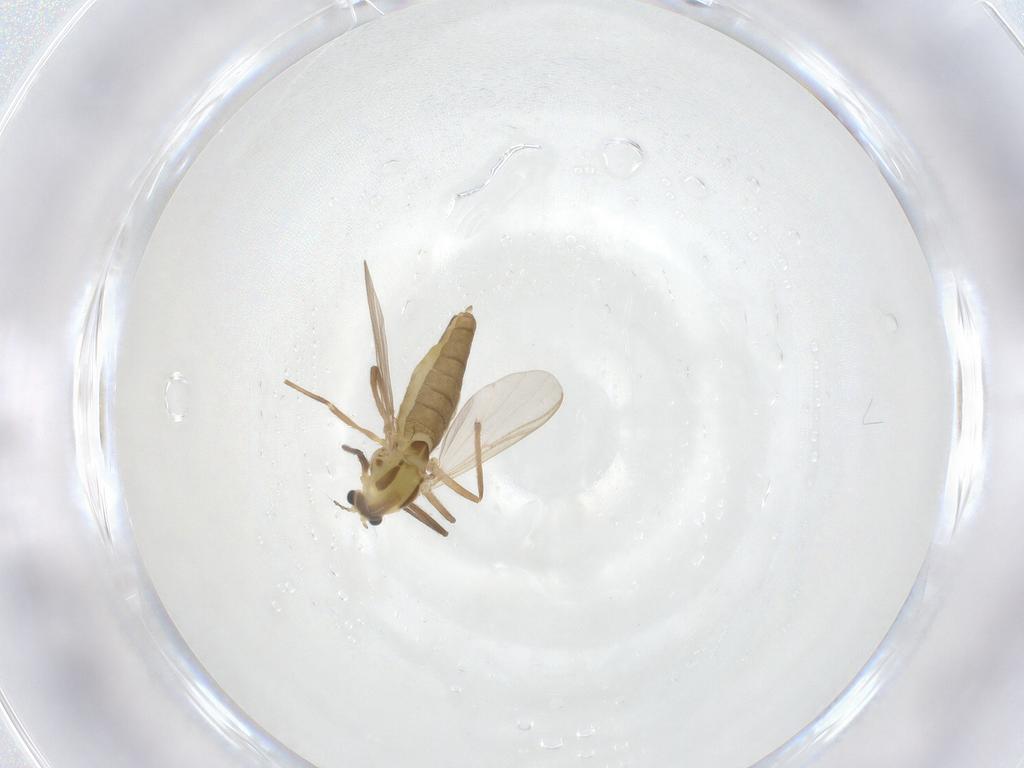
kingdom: Animalia
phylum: Arthropoda
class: Insecta
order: Diptera
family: Chironomidae
